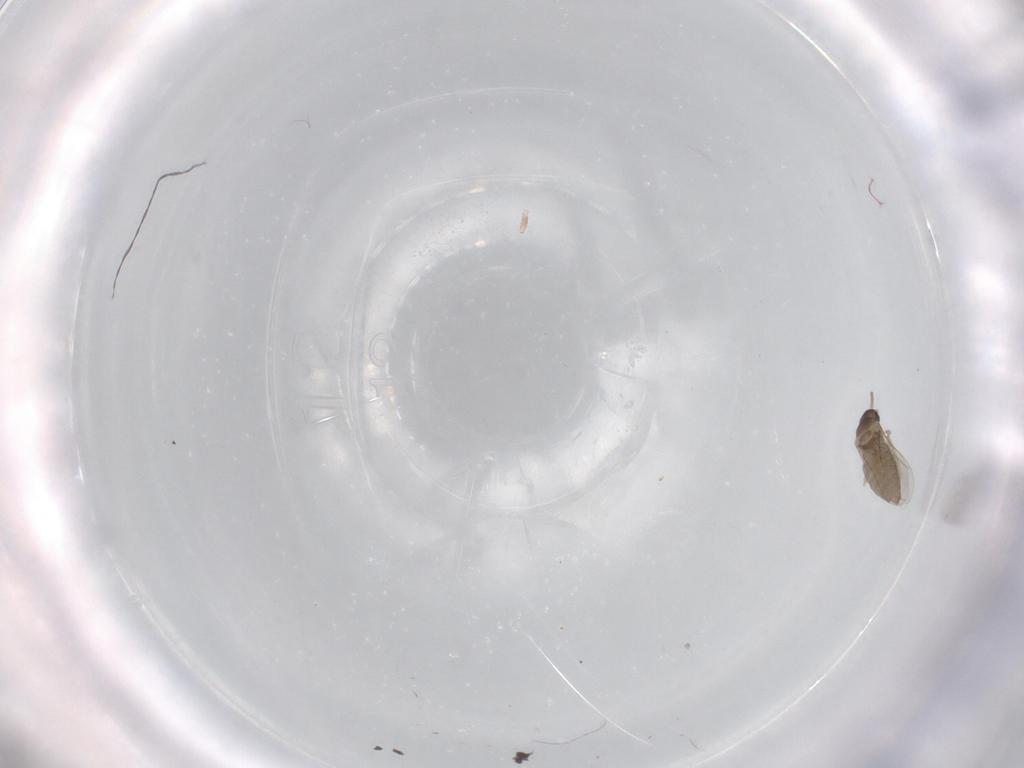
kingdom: Animalia
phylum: Arthropoda
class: Insecta
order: Diptera
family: Cecidomyiidae
